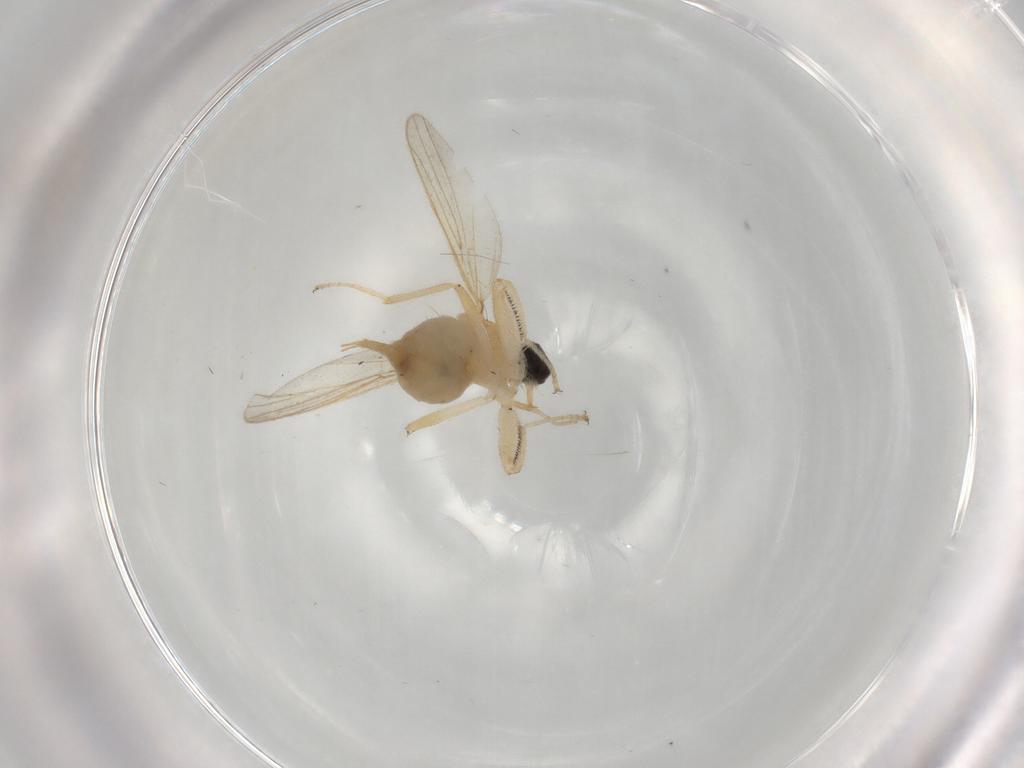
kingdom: Animalia
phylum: Arthropoda
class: Insecta
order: Diptera
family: Sciaridae
